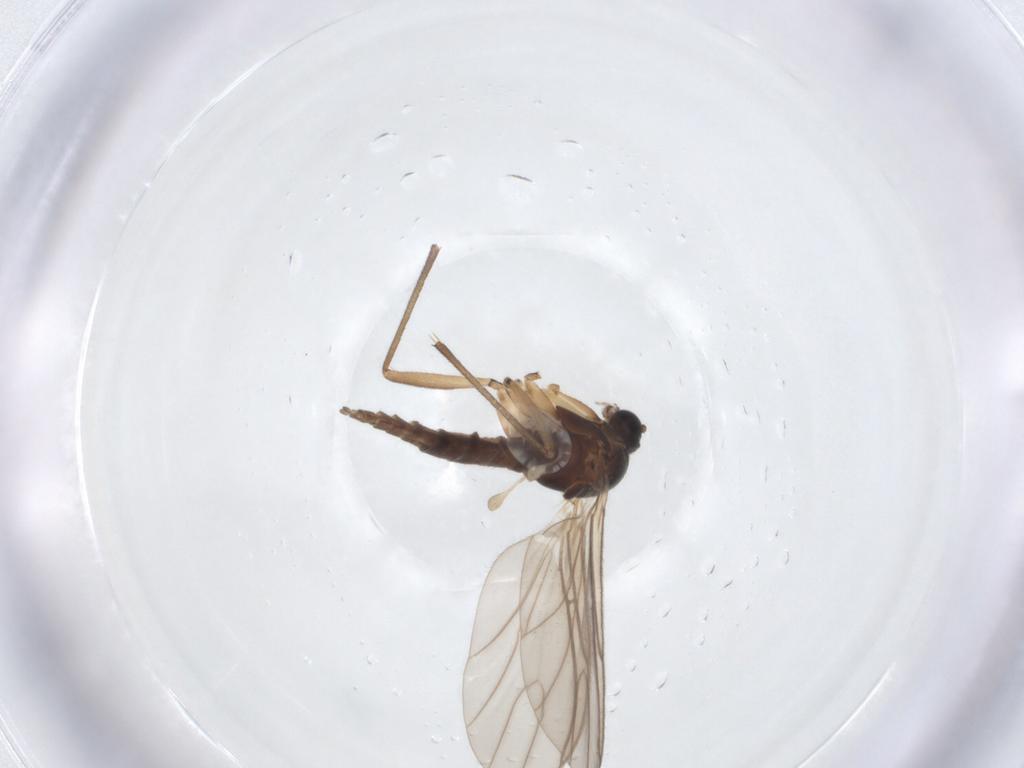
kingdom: Animalia
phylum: Arthropoda
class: Insecta
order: Diptera
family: Sciaridae
